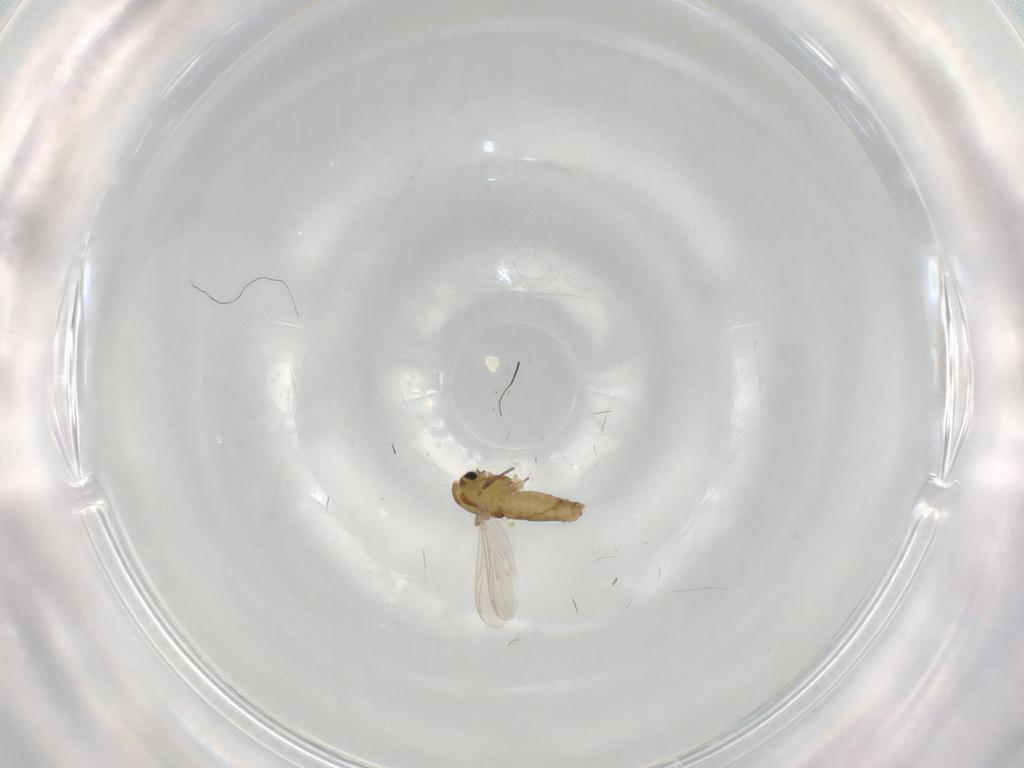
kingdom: Animalia
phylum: Arthropoda
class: Insecta
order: Diptera
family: Chironomidae
